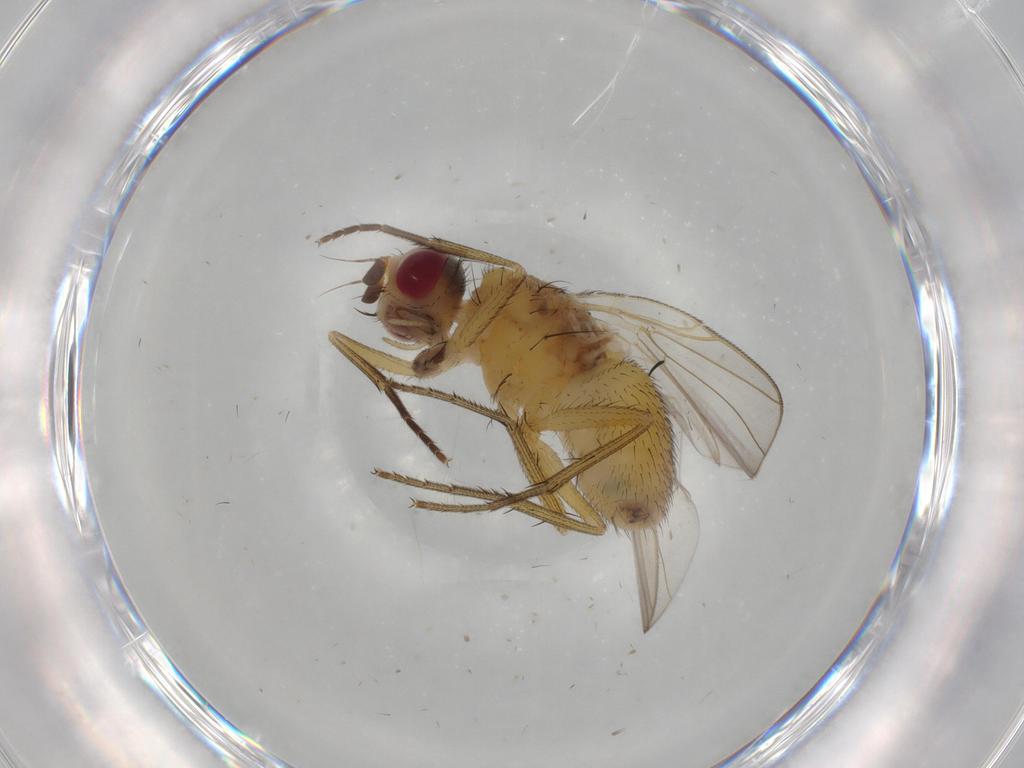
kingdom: Animalia
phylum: Arthropoda
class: Insecta
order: Diptera
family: Muscidae
